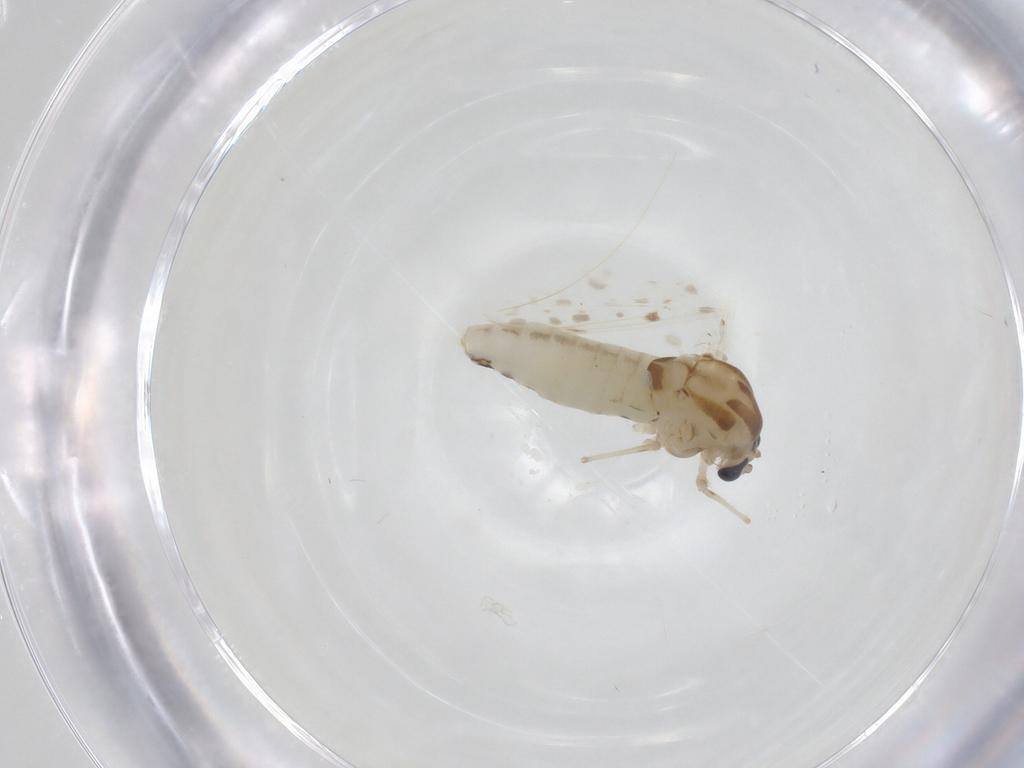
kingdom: Animalia
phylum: Arthropoda
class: Insecta
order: Diptera
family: Chironomidae
